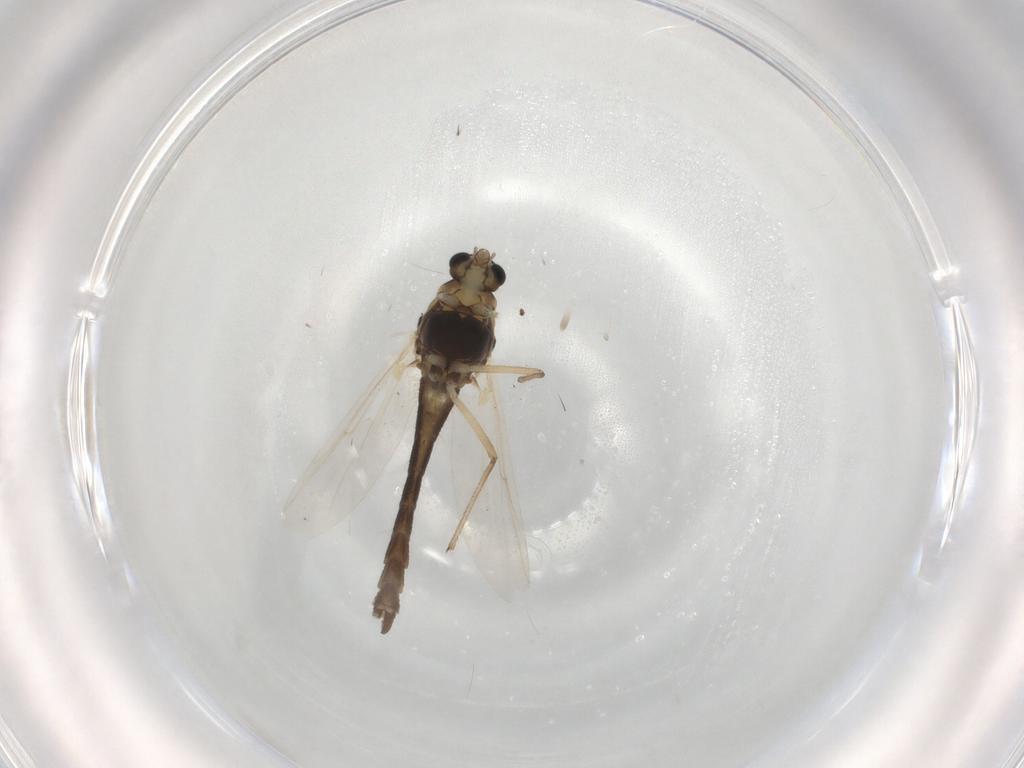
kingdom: Animalia
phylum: Arthropoda
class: Insecta
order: Diptera
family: Chironomidae
